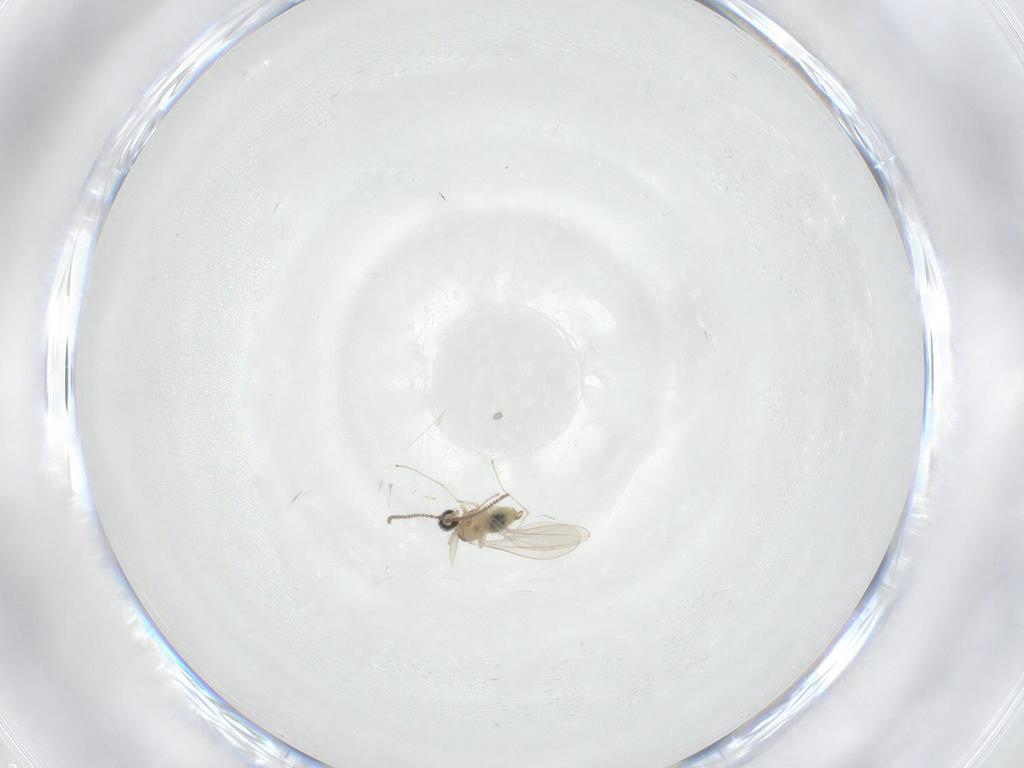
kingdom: Animalia
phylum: Arthropoda
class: Insecta
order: Diptera
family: Cecidomyiidae
